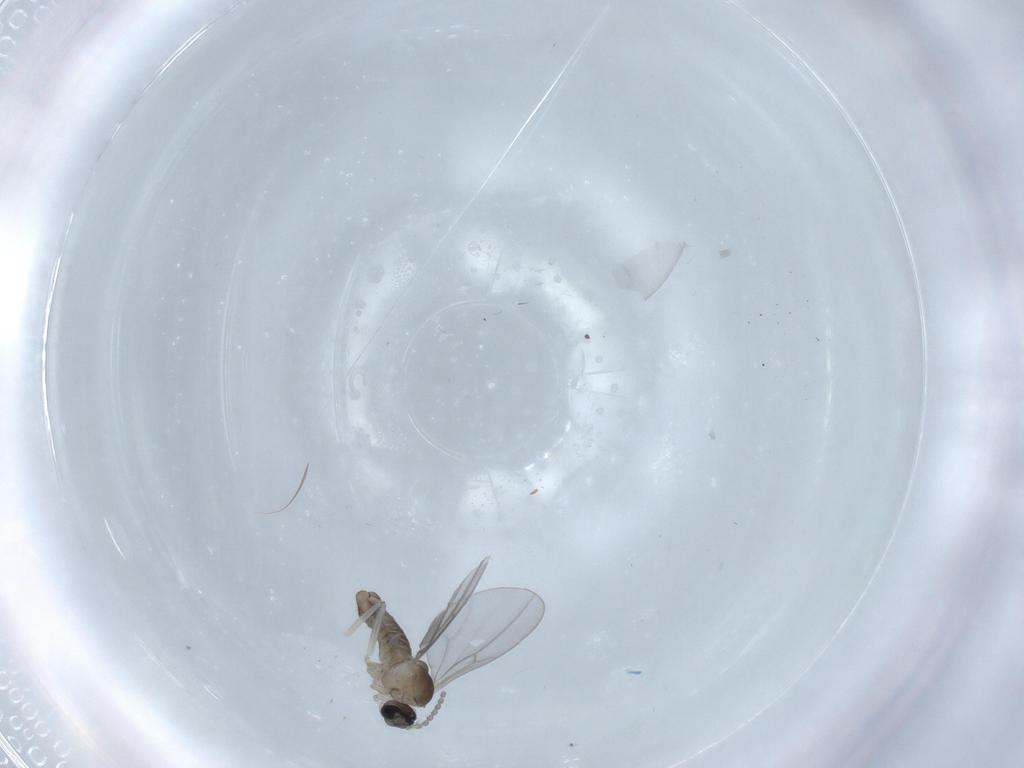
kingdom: Animalia
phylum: Arthropoda
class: Insecta
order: Diptera
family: Cecidomyiidae
